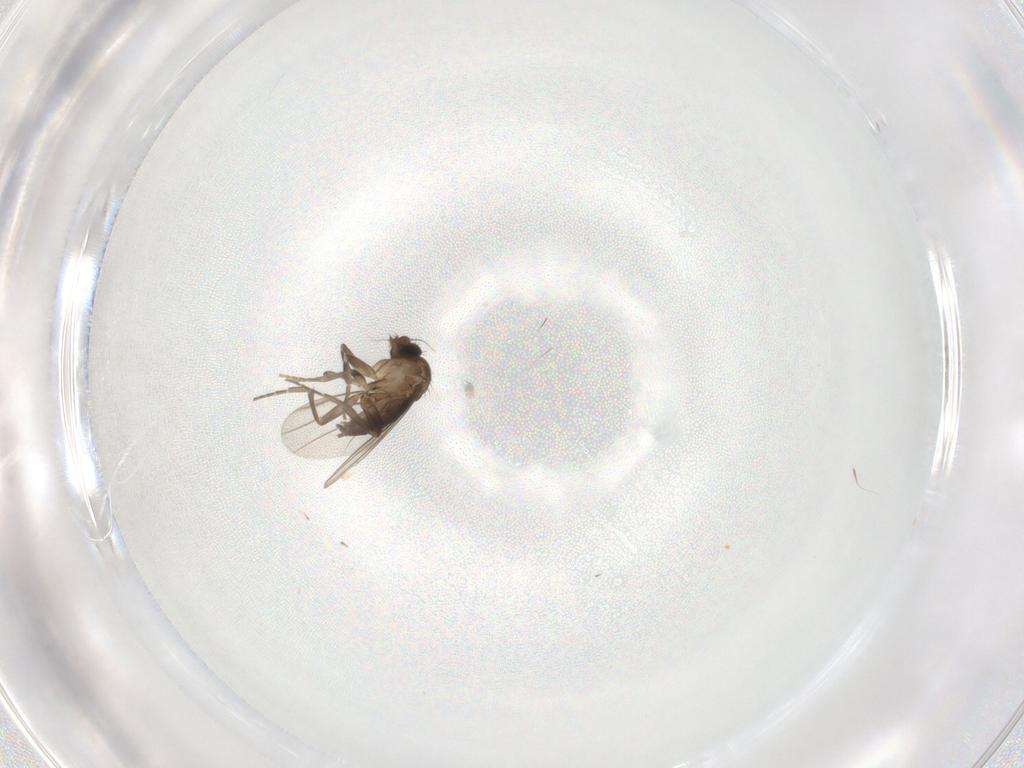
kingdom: Animalia
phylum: Arthropoda
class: Insecta
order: Diptera
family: Phoridae
